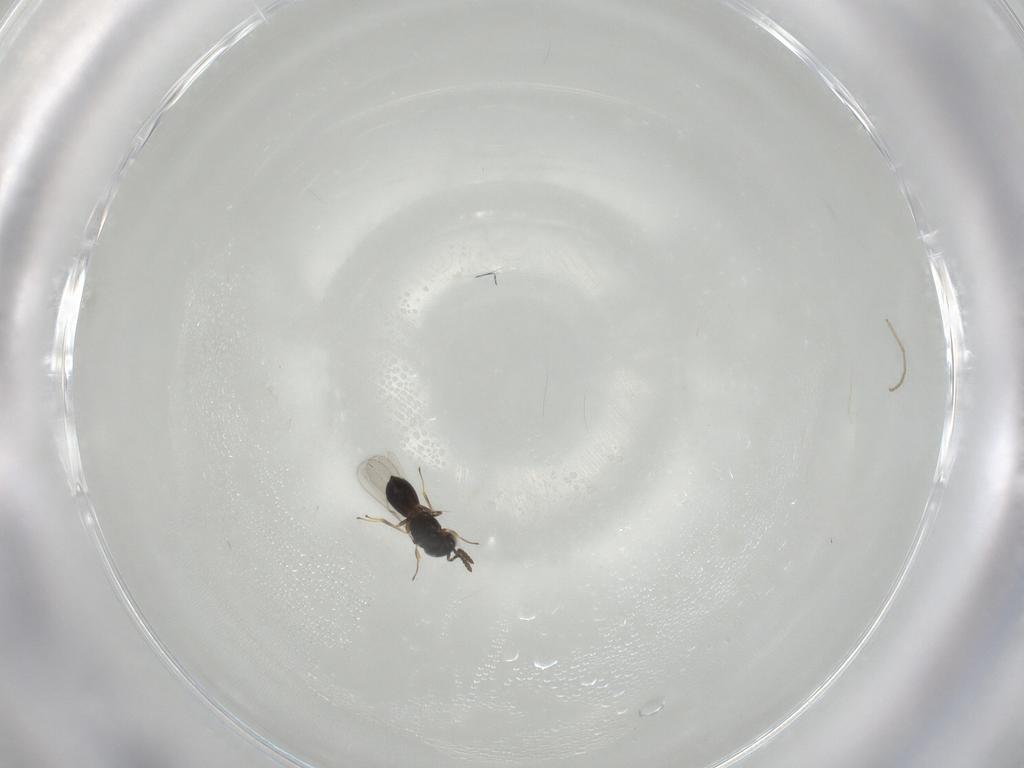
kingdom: Animalia
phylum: Arthropoda
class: Insecta
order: Hymenoptera
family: Scelionidae
